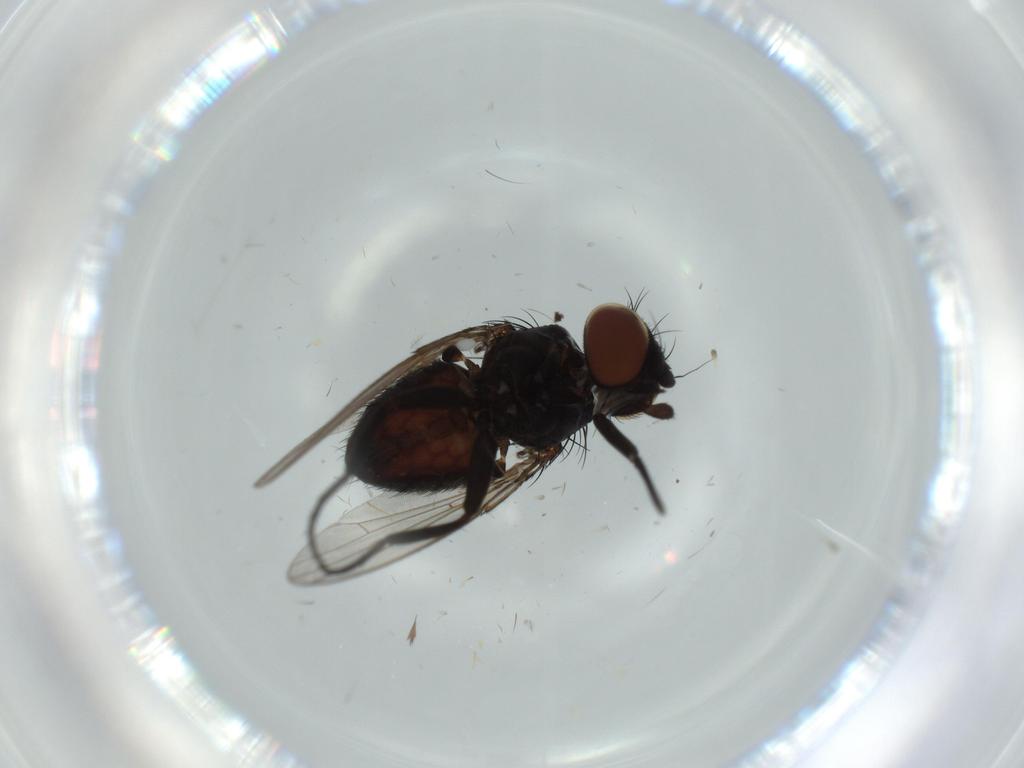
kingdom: Animalia
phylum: Arthropoda
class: Insecta
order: Diptera
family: Milichiidae
